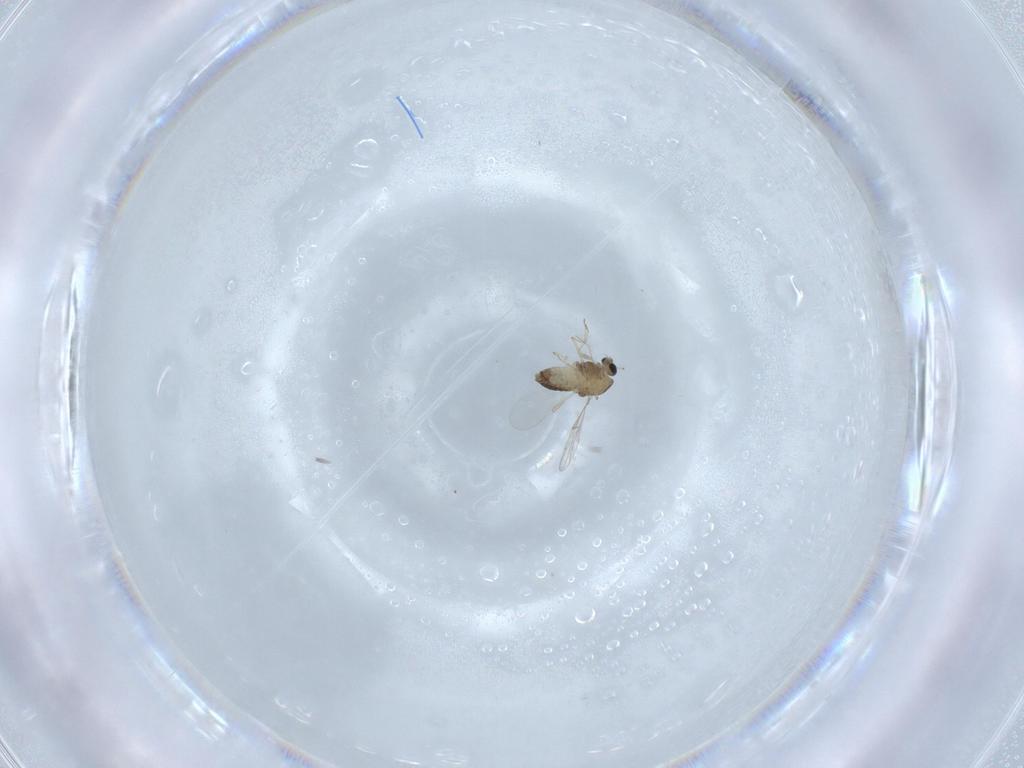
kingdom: Animalia
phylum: Arthropoda
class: Insecta
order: Diptera
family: Chironomidae
